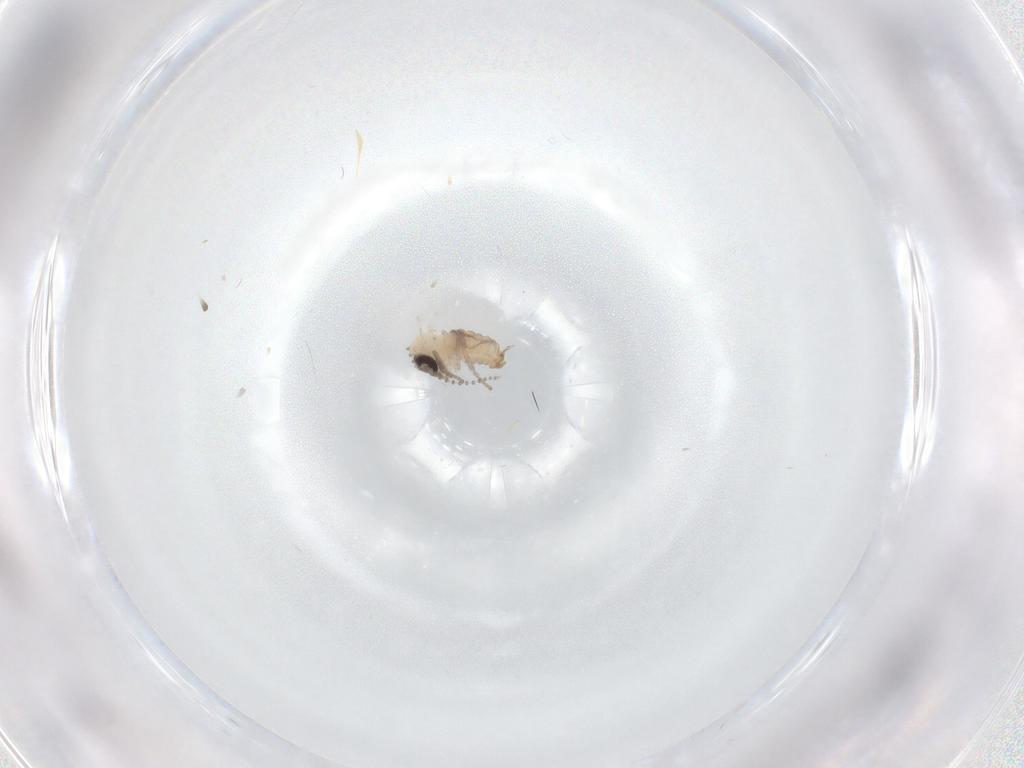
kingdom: Animalia
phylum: Arthropoda
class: Insecta
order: Diptera
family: Psychodidae
